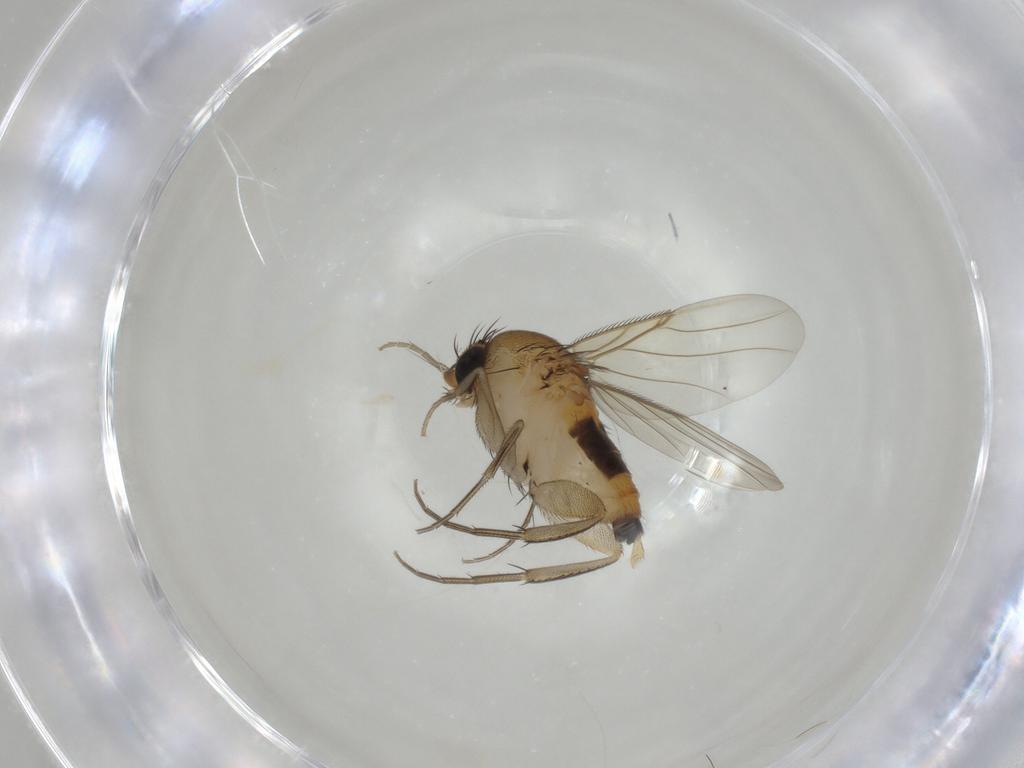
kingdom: Animalia
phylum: Arthropoda
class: Insecta
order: Diptera
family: Phoridae
